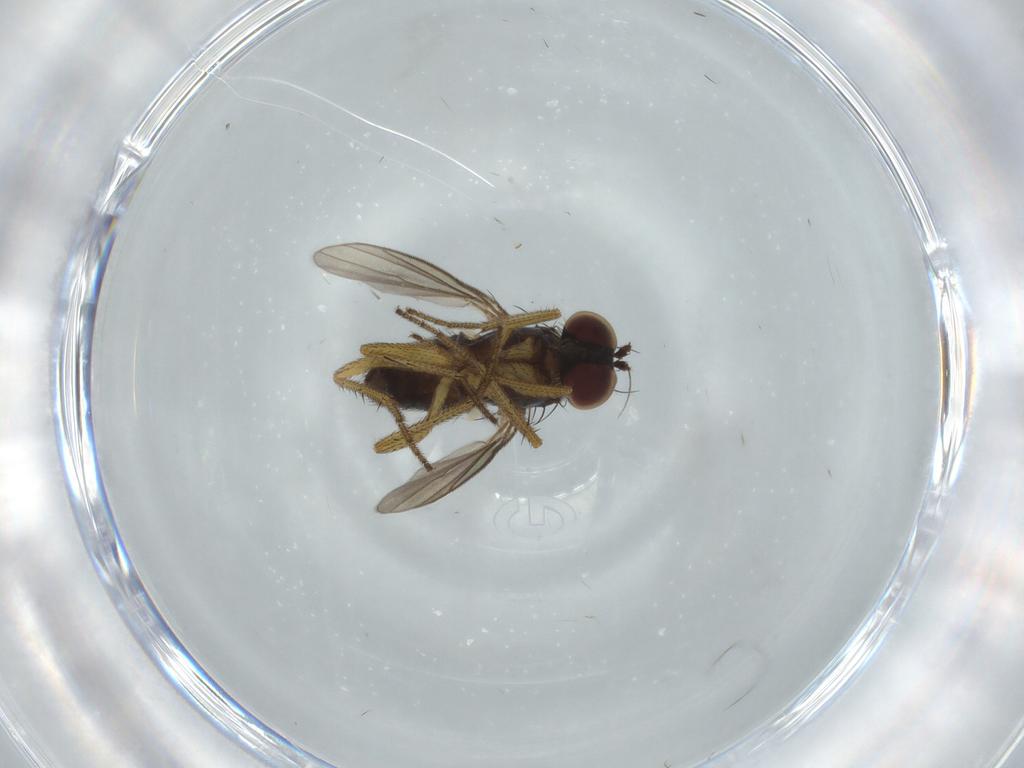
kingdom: Animalia
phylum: Arthropoda
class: Insecta
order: Diptera
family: Dolichopodidae
